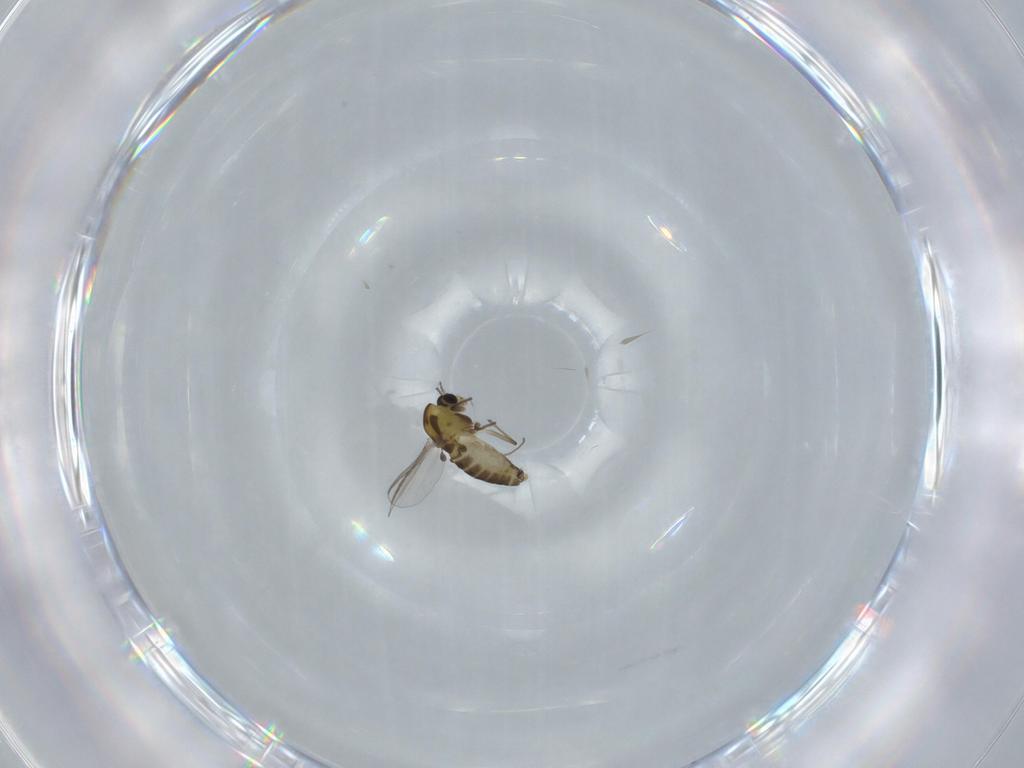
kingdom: Animalia
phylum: Arthropoda
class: Insecta
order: Diptera
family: Chironomidae
